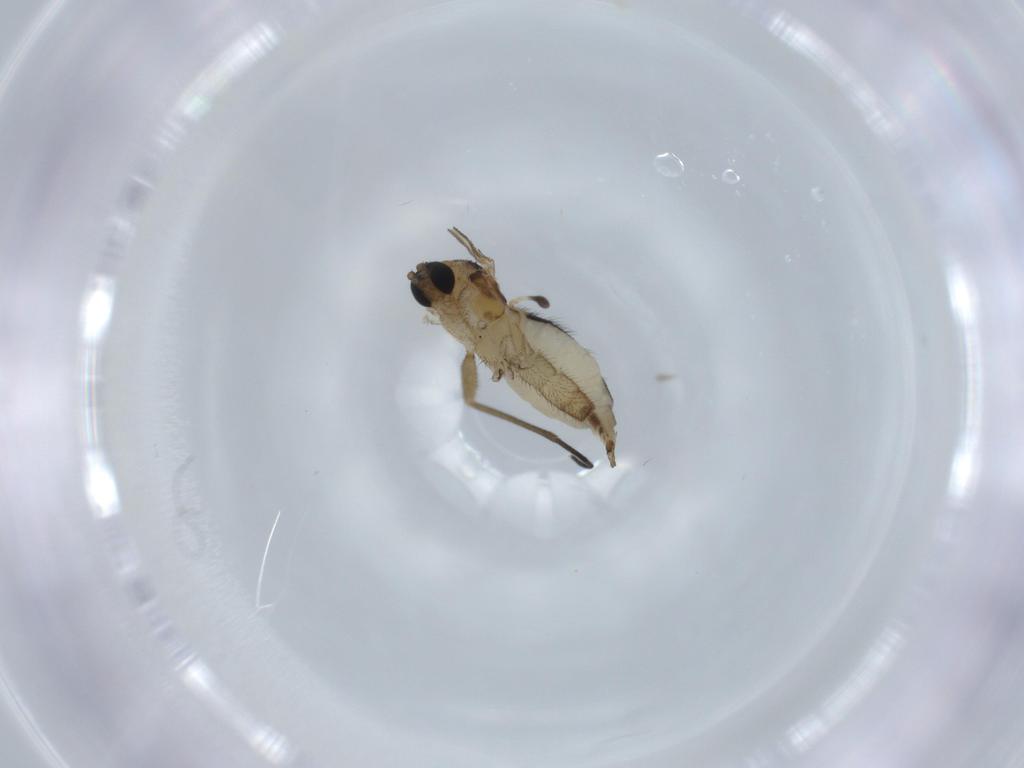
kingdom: Animalia
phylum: Arthropoda
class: Insecta
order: Diptera
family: Sciaridae
